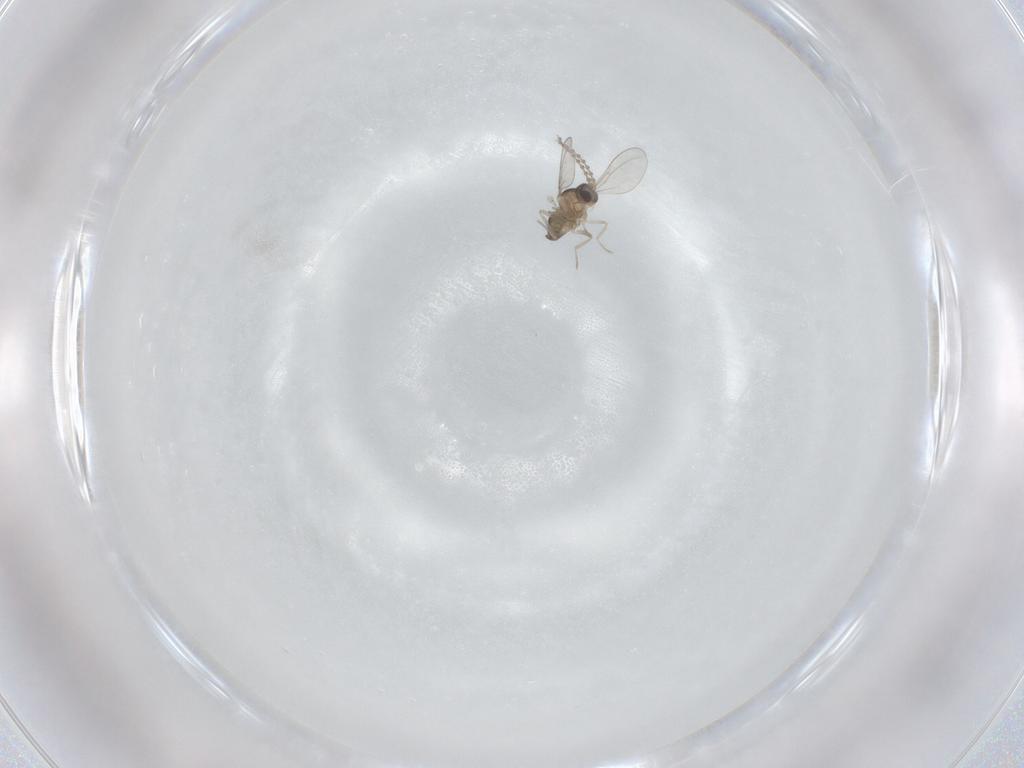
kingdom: Animalia
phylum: Arthropoda
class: Insecta
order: Diptera
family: Cecidomyiidae
